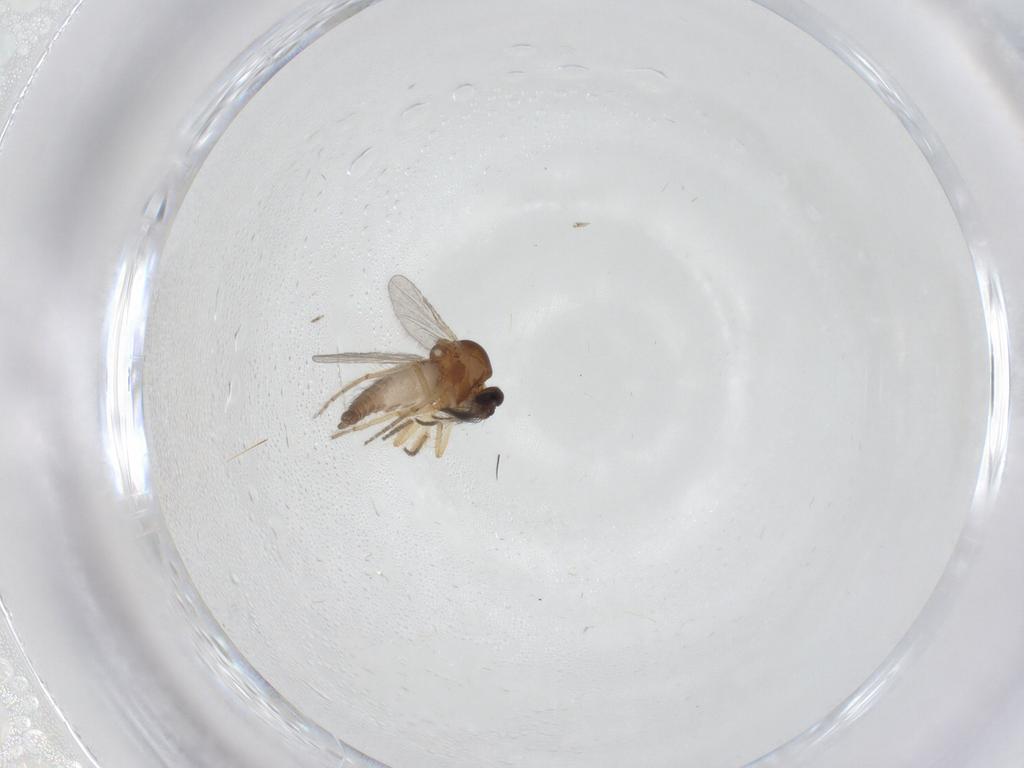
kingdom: Animalia
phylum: Arthropoda
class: Insecta
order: Diptera
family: Ceratopogonidae
